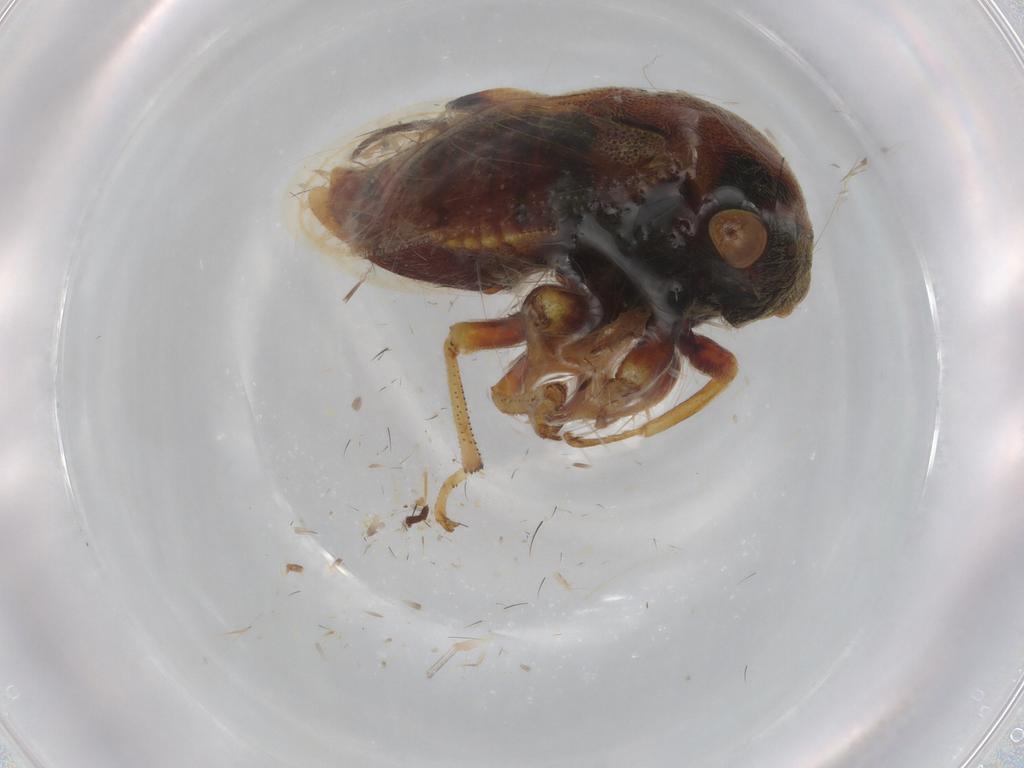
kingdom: Animalia
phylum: Arthropoda
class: Insecta
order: Hemiptera
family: Membracidae
